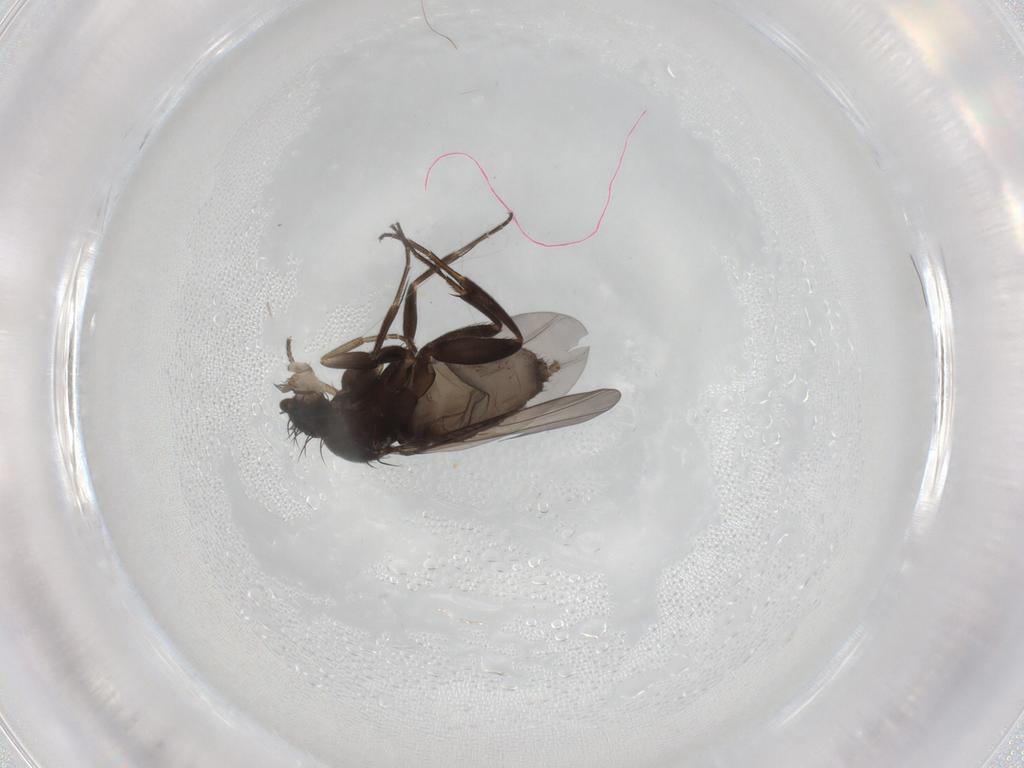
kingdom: Animalia
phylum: Arthropoda
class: Insecta
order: Diptera
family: Phoridae
